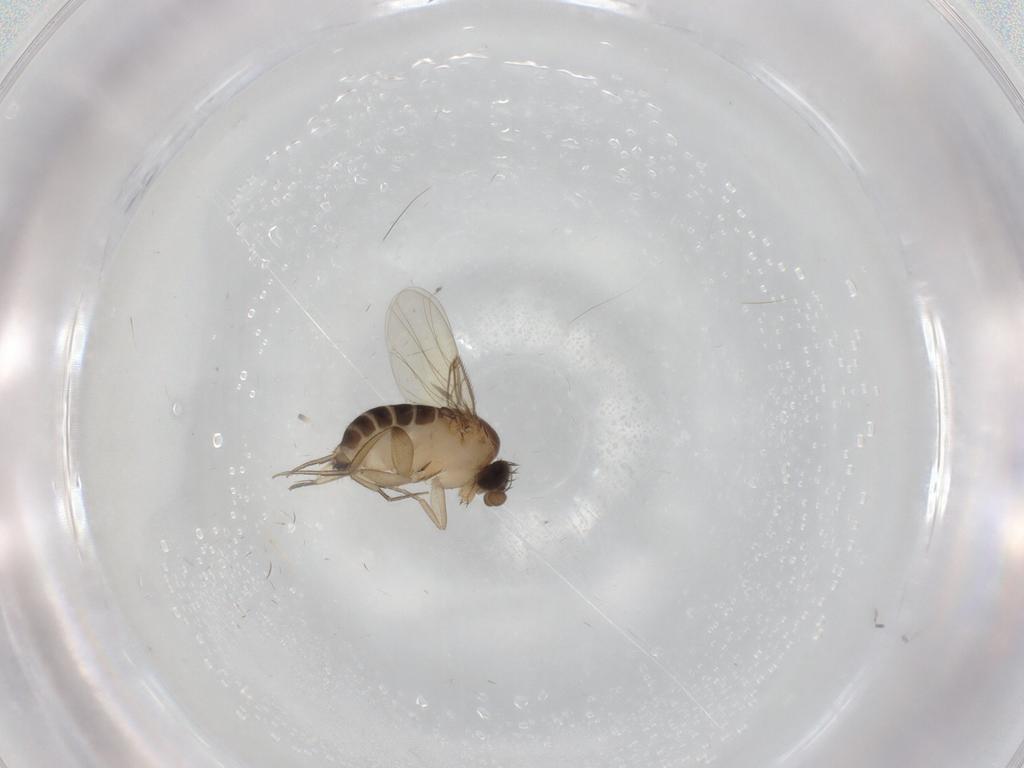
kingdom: Animalia
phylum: Arthropoda
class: Insecta
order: Diptera
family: Phoridae
